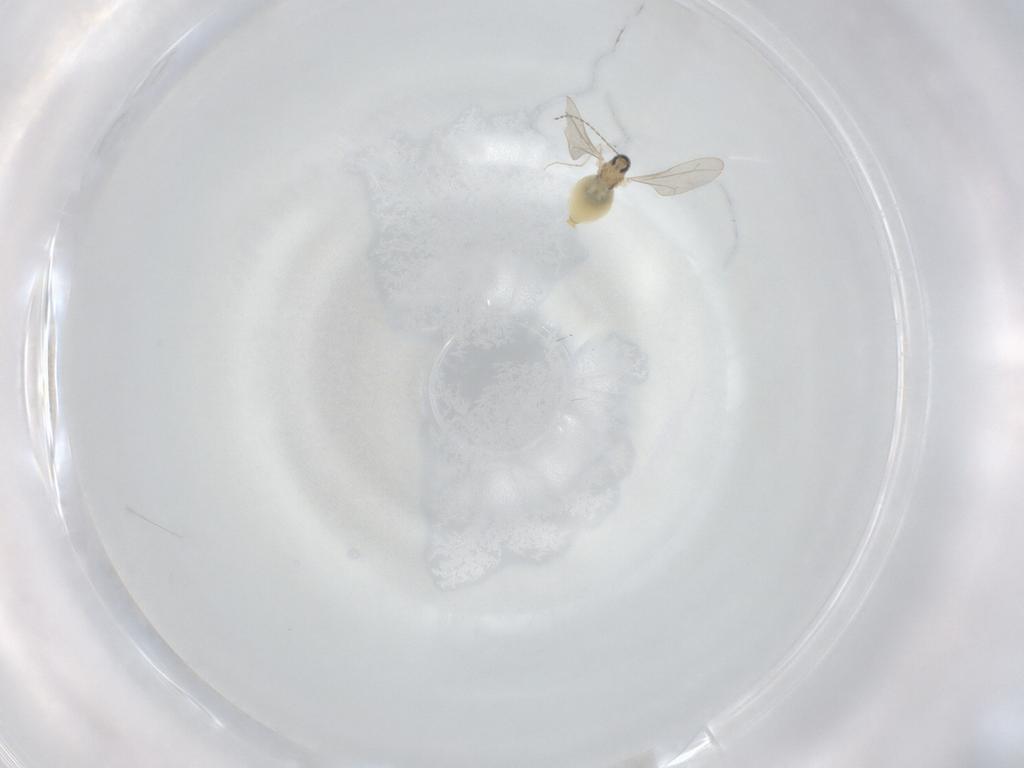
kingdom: Animalia
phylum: Arthropoda
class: Insecta
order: Diptera
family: Cecidomyiidae
